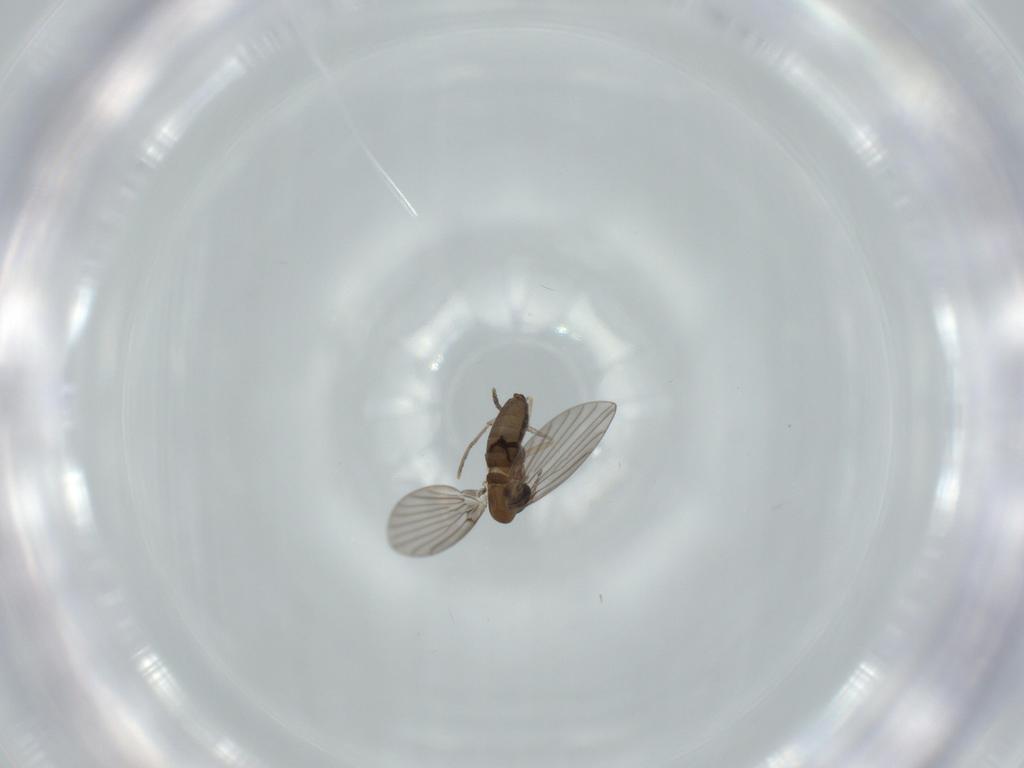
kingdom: Animalia
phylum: Arthropoda
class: Insecta
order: Diptera
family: Psychodidae
